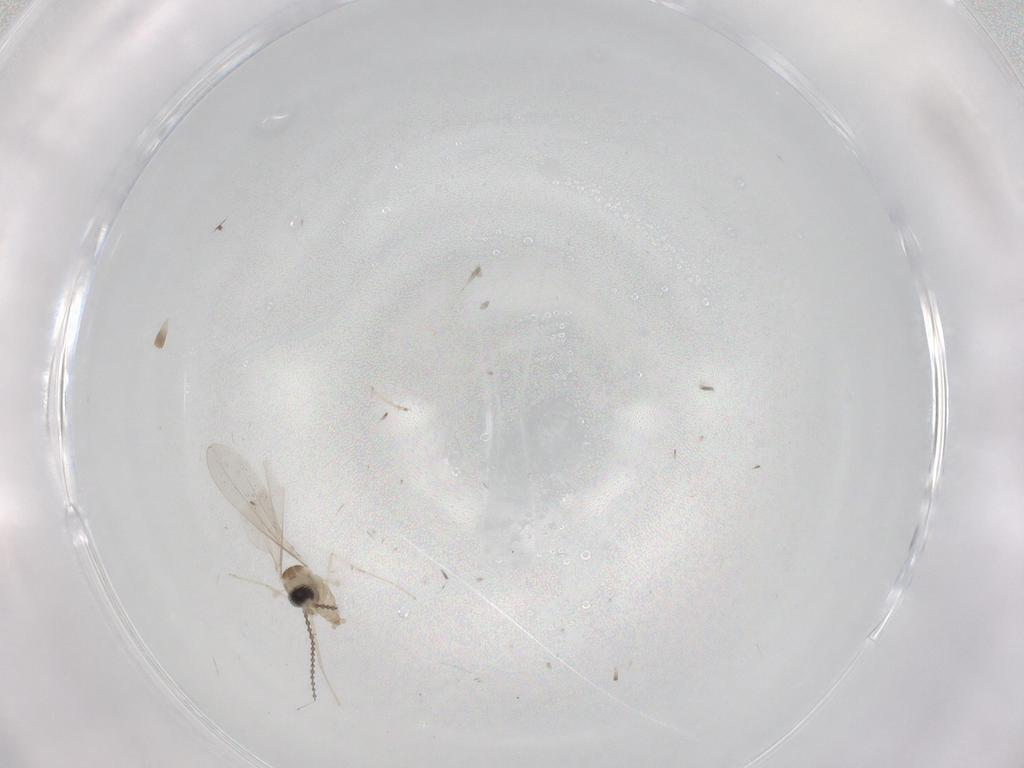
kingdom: Animalia
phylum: Arthropoda
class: Insecta
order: Diptera
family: Cecidomyiidae
